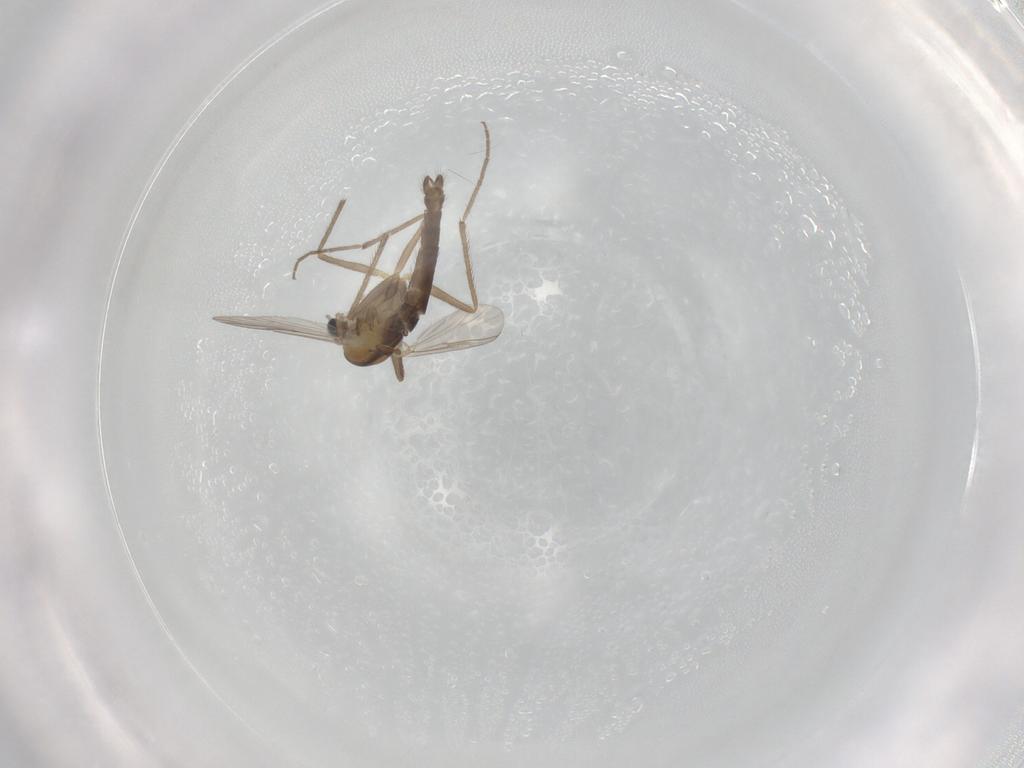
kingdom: Animalia
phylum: Arthropoda
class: Insecta
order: Diptera
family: Chironomidae
